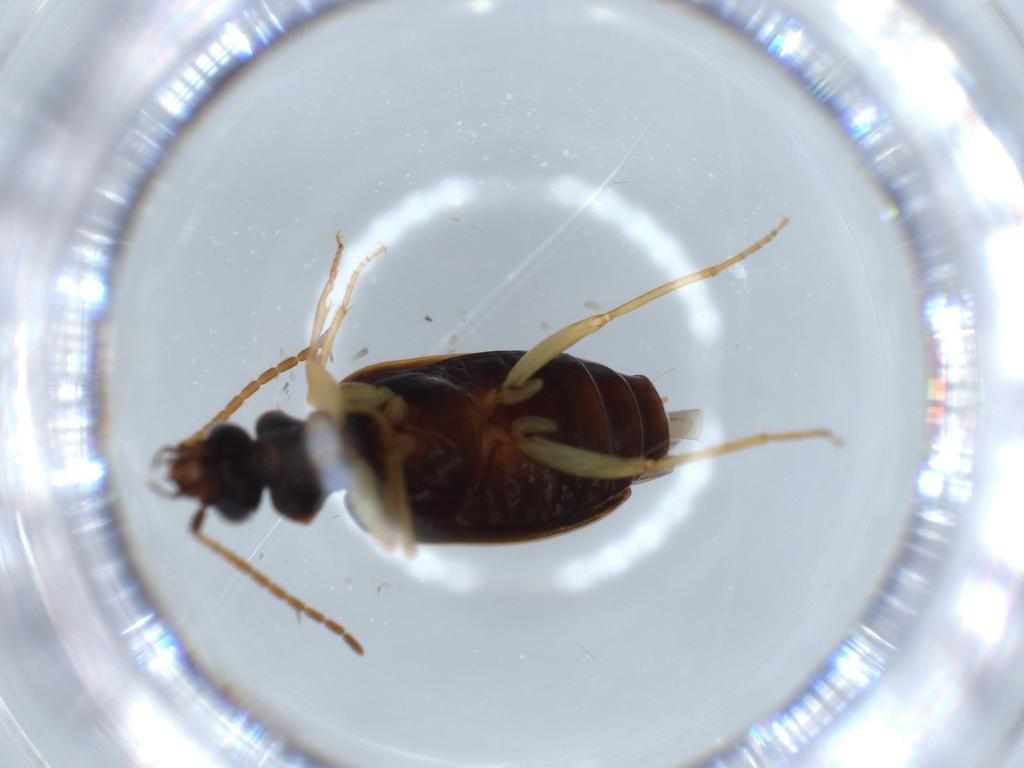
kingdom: Animalia
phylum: Arthropoda
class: Insecta
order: Coleoptera
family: Carabidae
